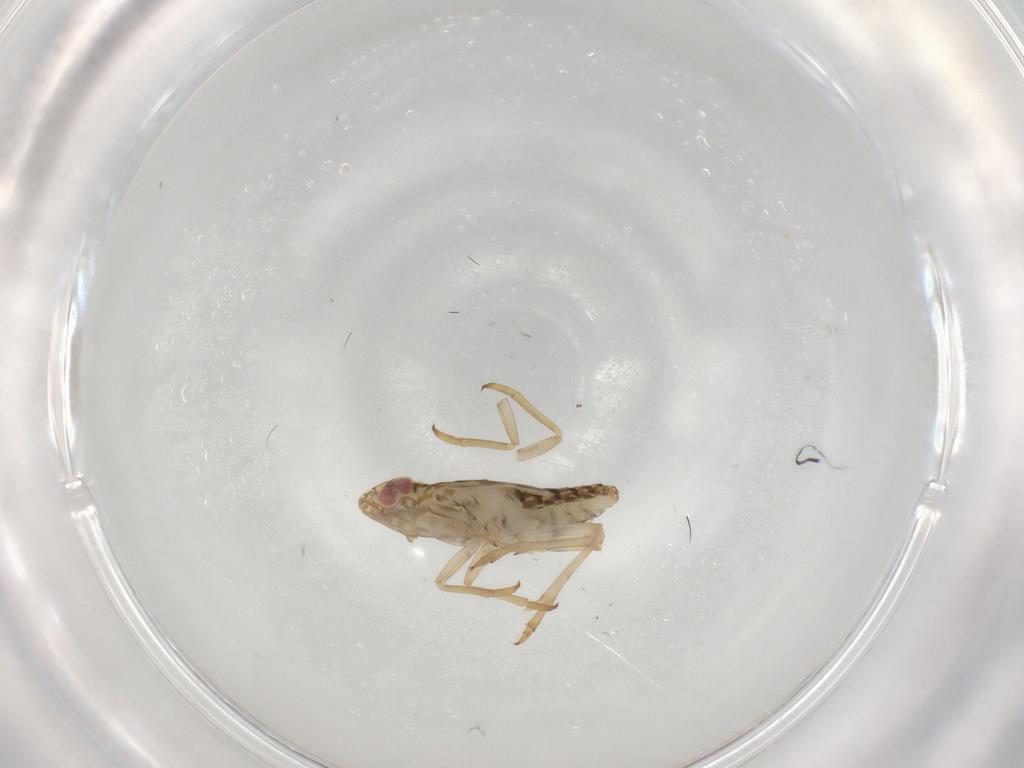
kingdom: Animalia
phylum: Arthropoda
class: Insecta
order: Hemiptera
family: Delphacidae
